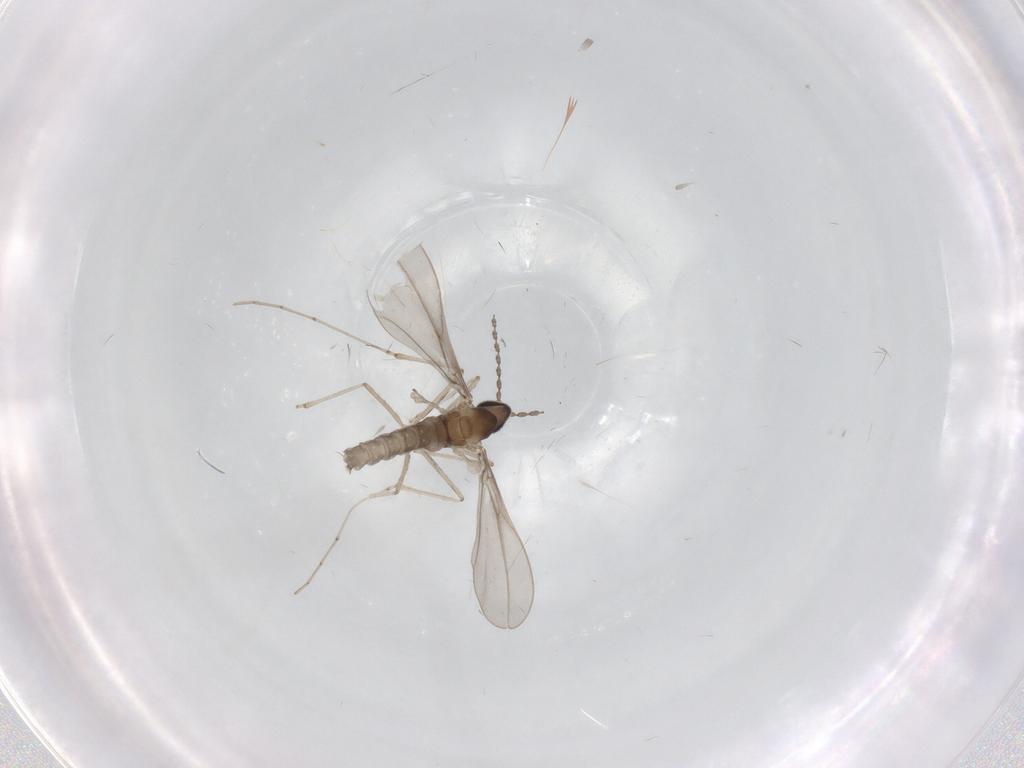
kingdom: Animalia
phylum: Arthropoda
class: Insecta
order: Diptera
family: Cecidomyiidae
